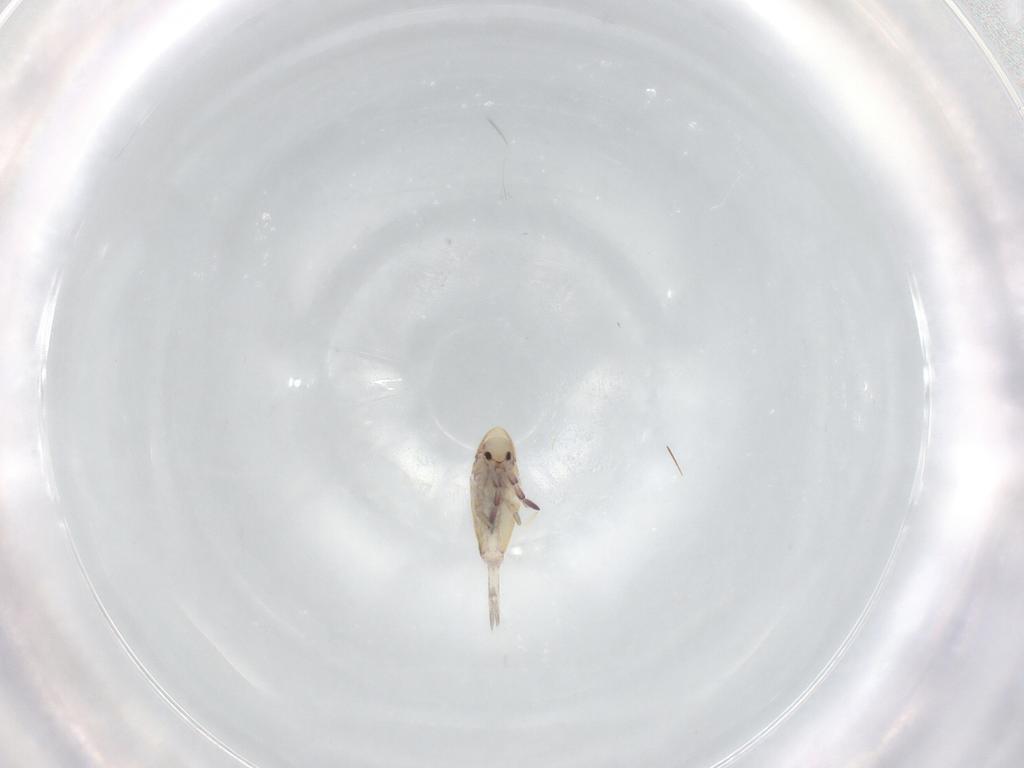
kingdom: Animalia
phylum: Arthropoda
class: Collembola
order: Entomobryomorpha
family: Entomobryidae
